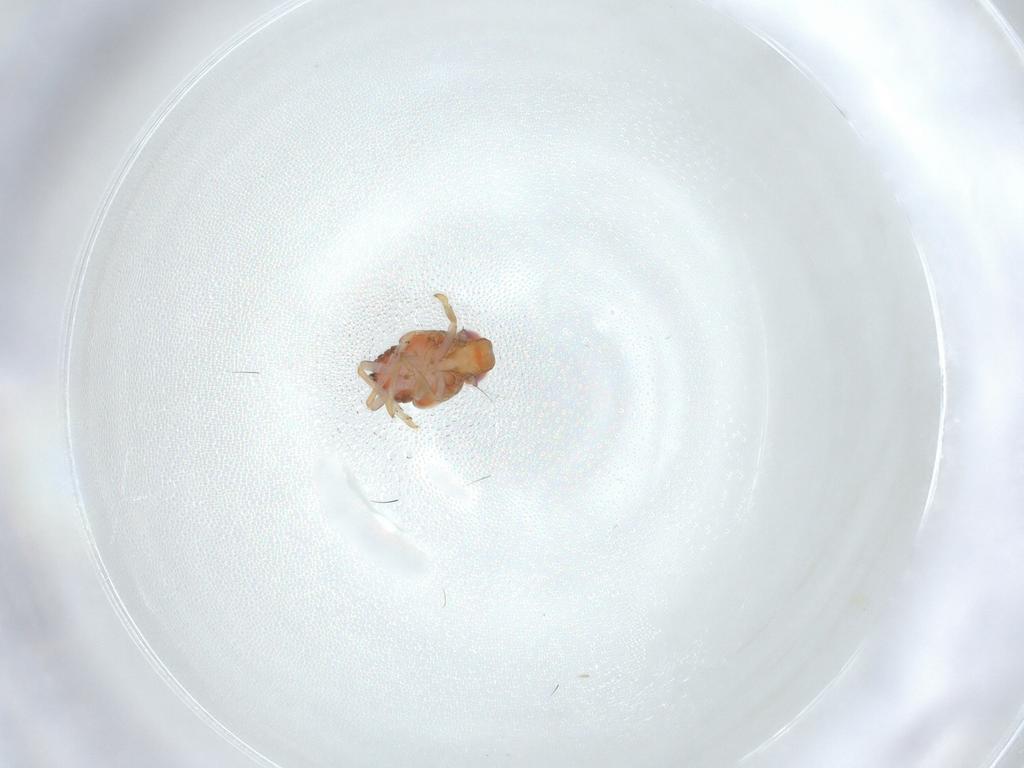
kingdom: Animalia
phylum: Arthropoda
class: Insecta
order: Hemiptera
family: Issidae
